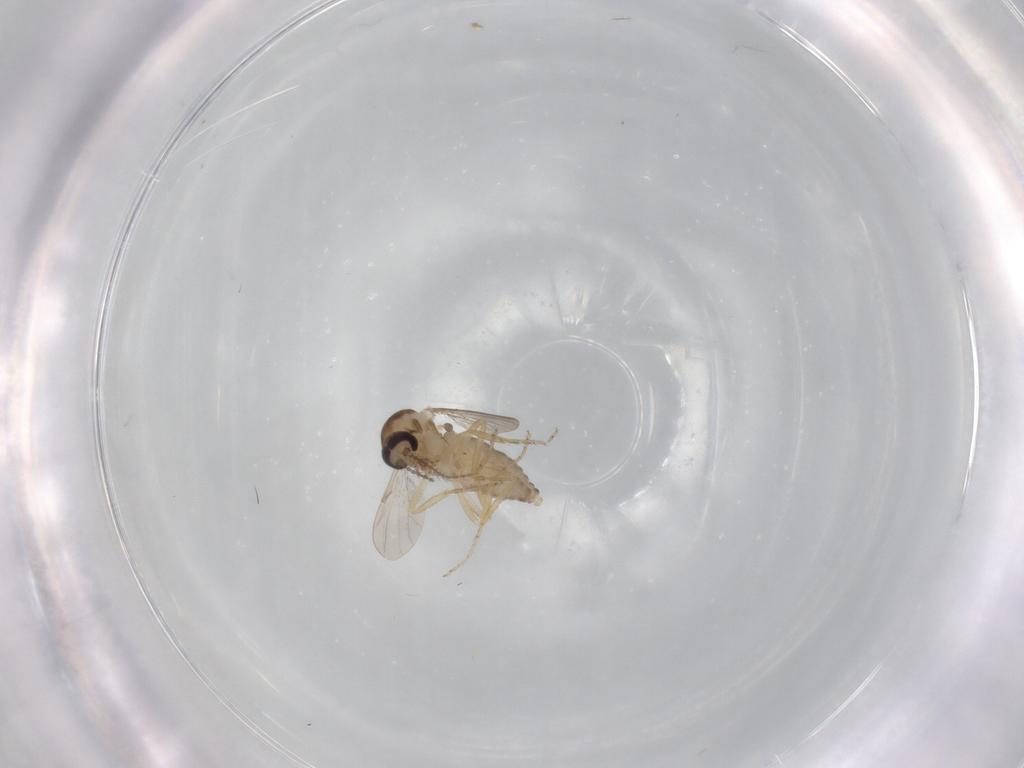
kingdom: Animalia
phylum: Arthropoda
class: Insecta
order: Diptera
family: Ceratopogonidae
